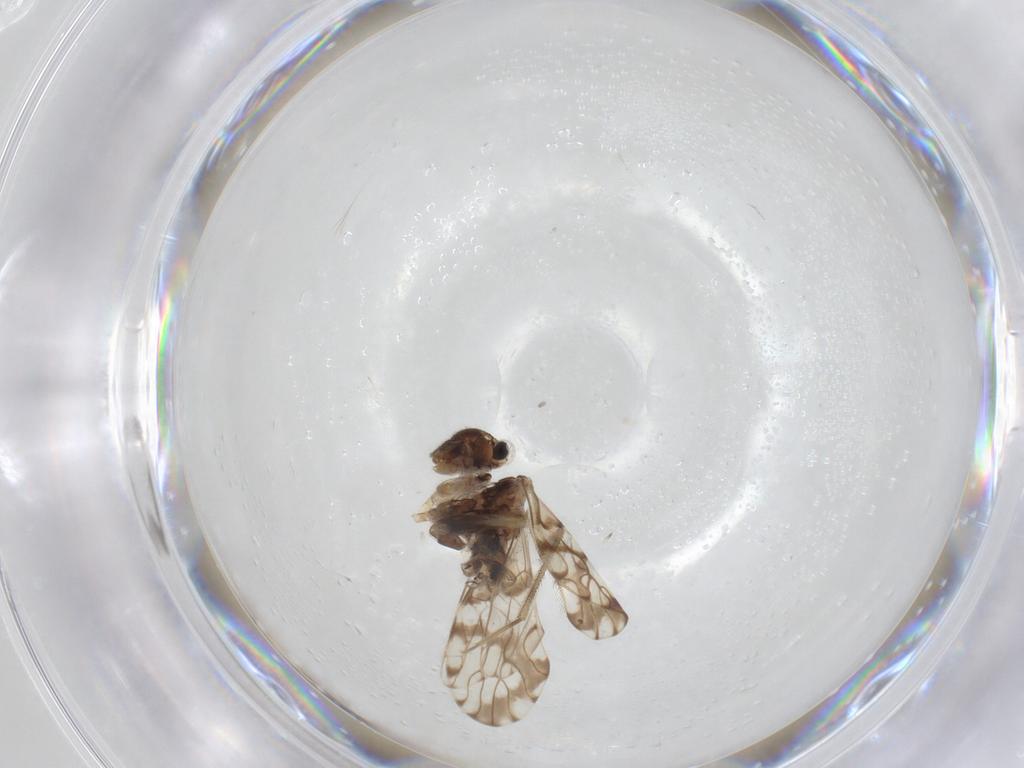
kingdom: Animalia
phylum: Arthropoda
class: Insecta
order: Psocodea
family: Epipsocidae
